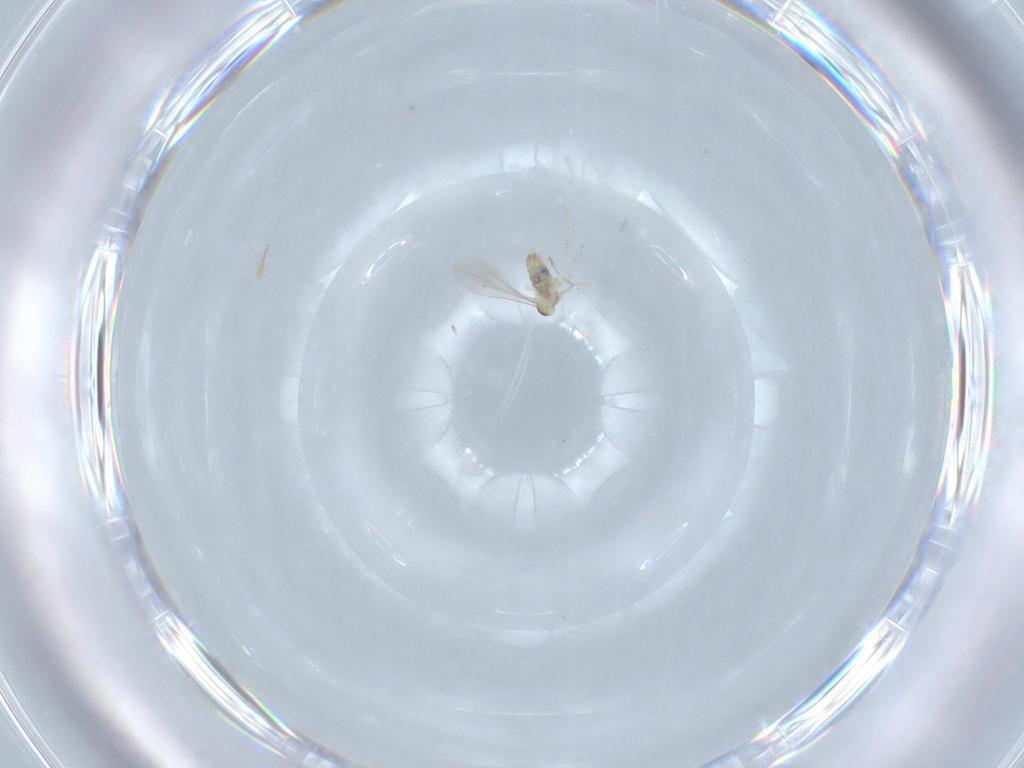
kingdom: Animalia
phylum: Arthropoda
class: Insecta
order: Diptera
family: Cecidomyiidae
